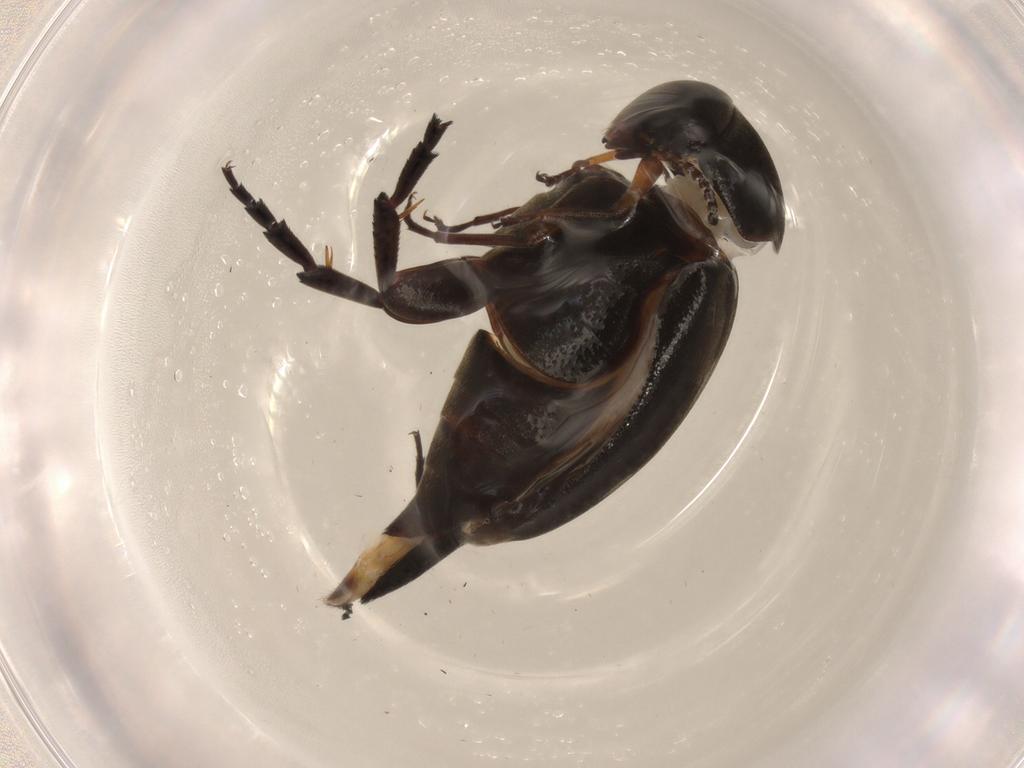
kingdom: Animalia
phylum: Arthropoda
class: Insecta
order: Coleoptera
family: Mordellidae
